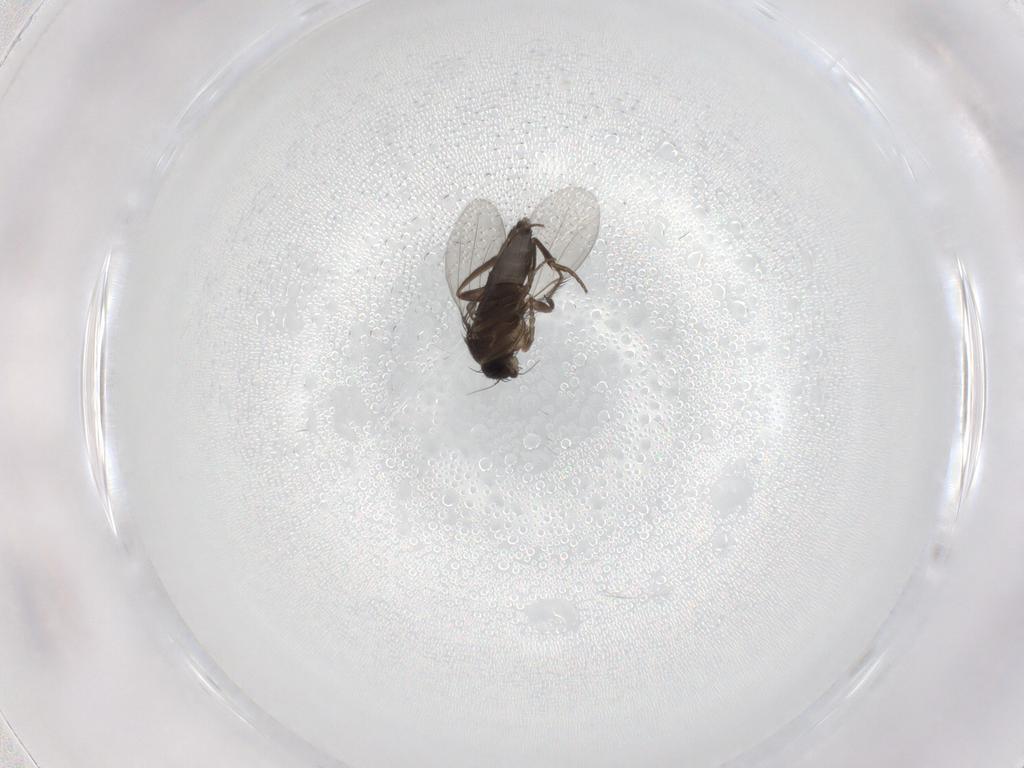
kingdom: Animalia
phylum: Arthropoda
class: Insecta
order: Diptera
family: Phoridae
